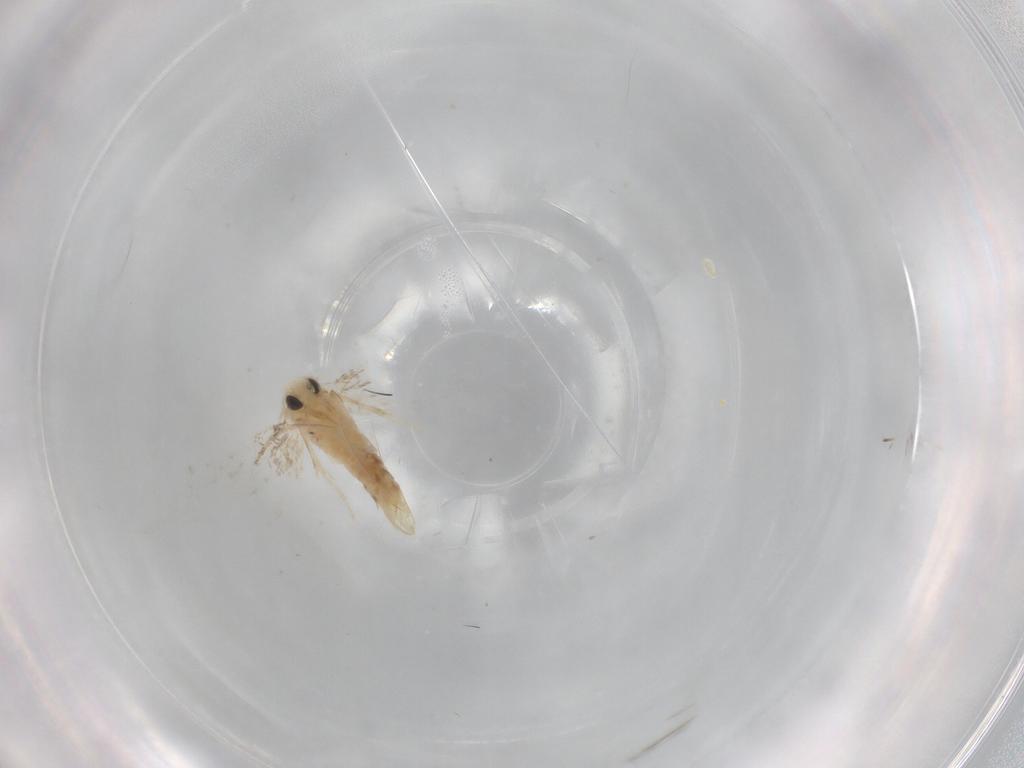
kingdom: Animalia
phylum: Arthropoda
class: Insecta
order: Lepidoptera
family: Gracillariidae
